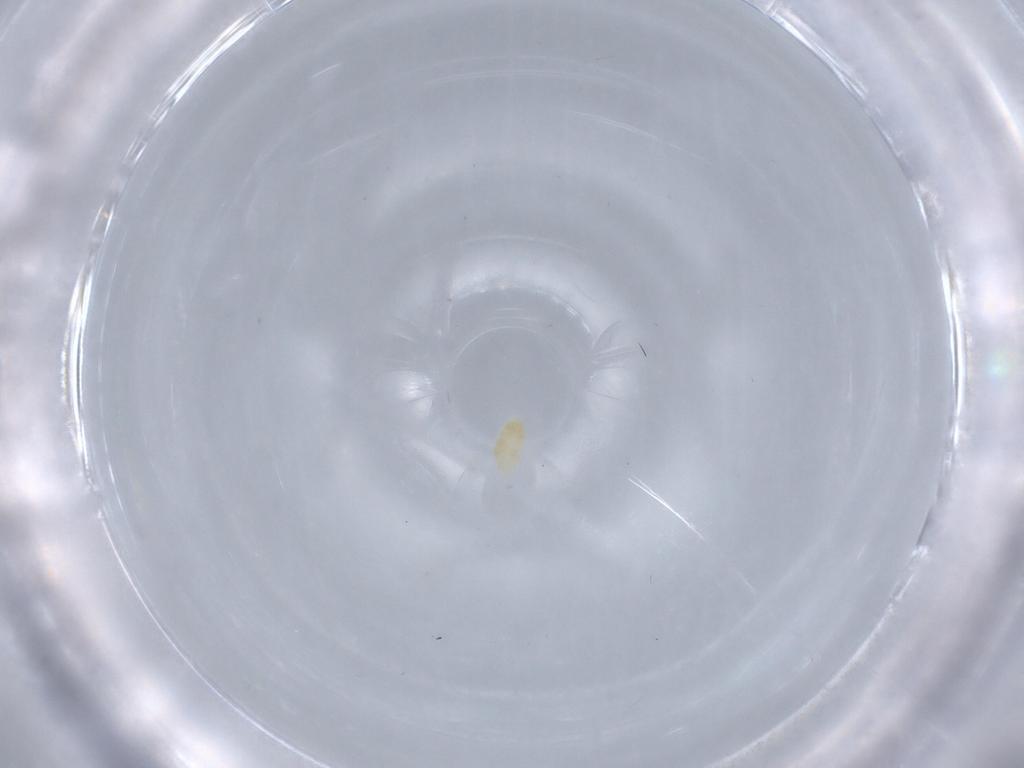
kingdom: Animalia
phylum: Arthropoda
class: Arachnida
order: Trombidiformes
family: Eupodidae
